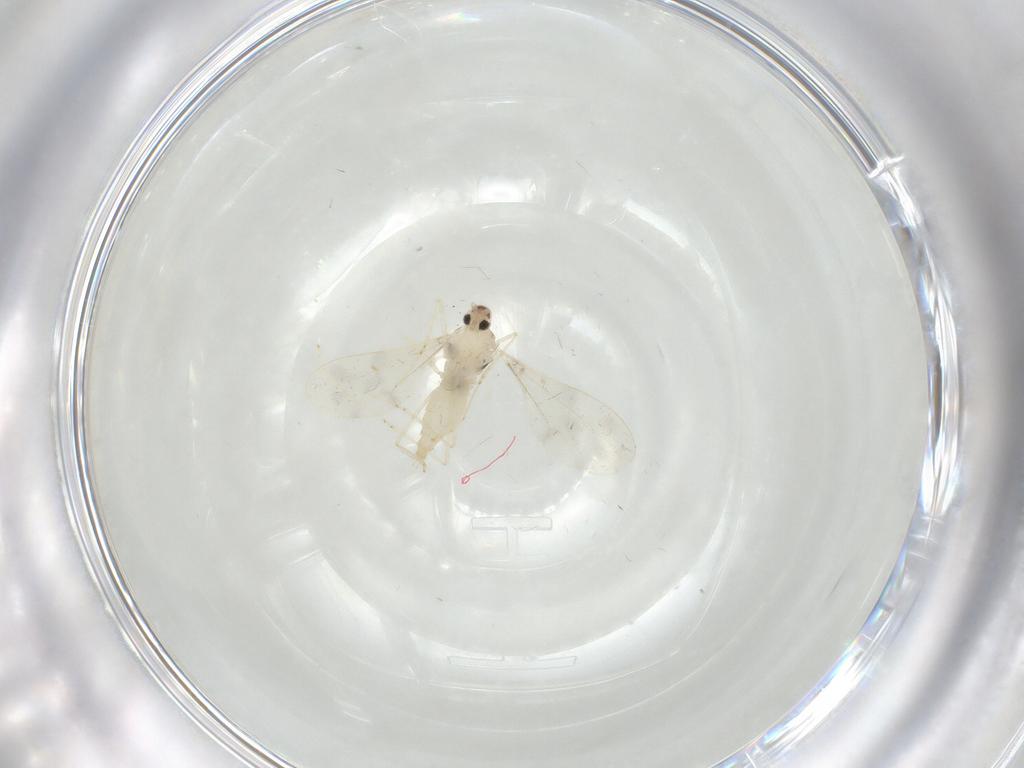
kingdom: Animalia
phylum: Arthropoda
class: Insecta
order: Diptera
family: Cecidomyiidae
